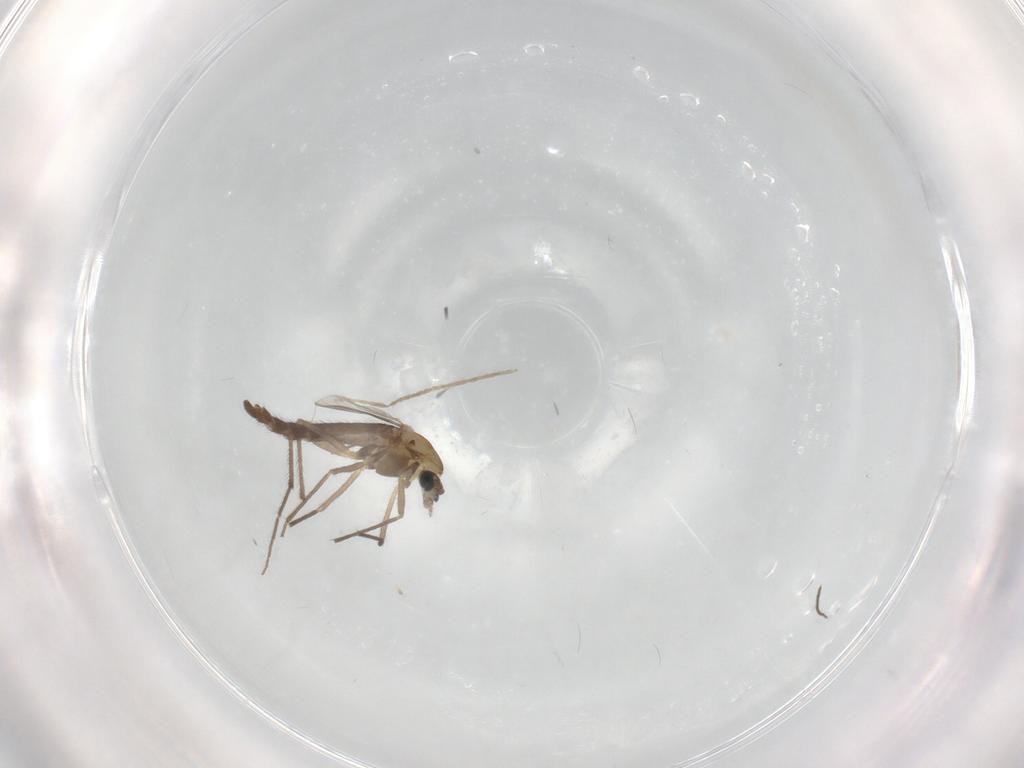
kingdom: Animalia
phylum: Arthropoda
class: Insecta
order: Diptera
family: Chironomidae
